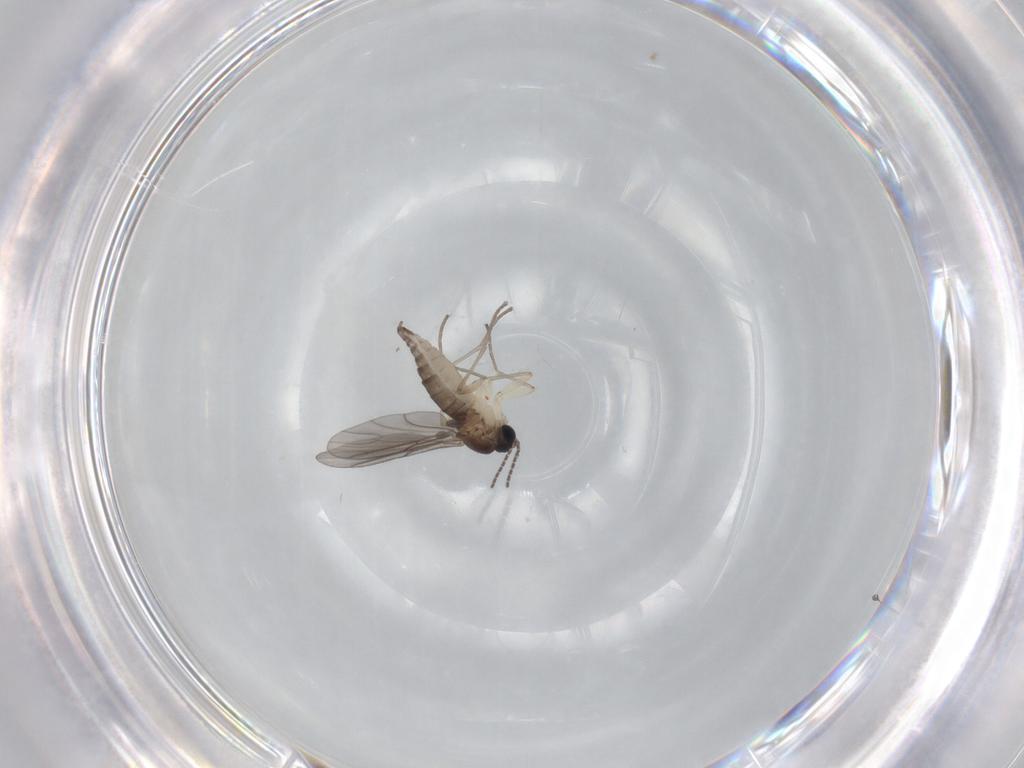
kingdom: Animalia
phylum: Arthropoda
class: Insecta
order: Diptera
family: Sciaridae
